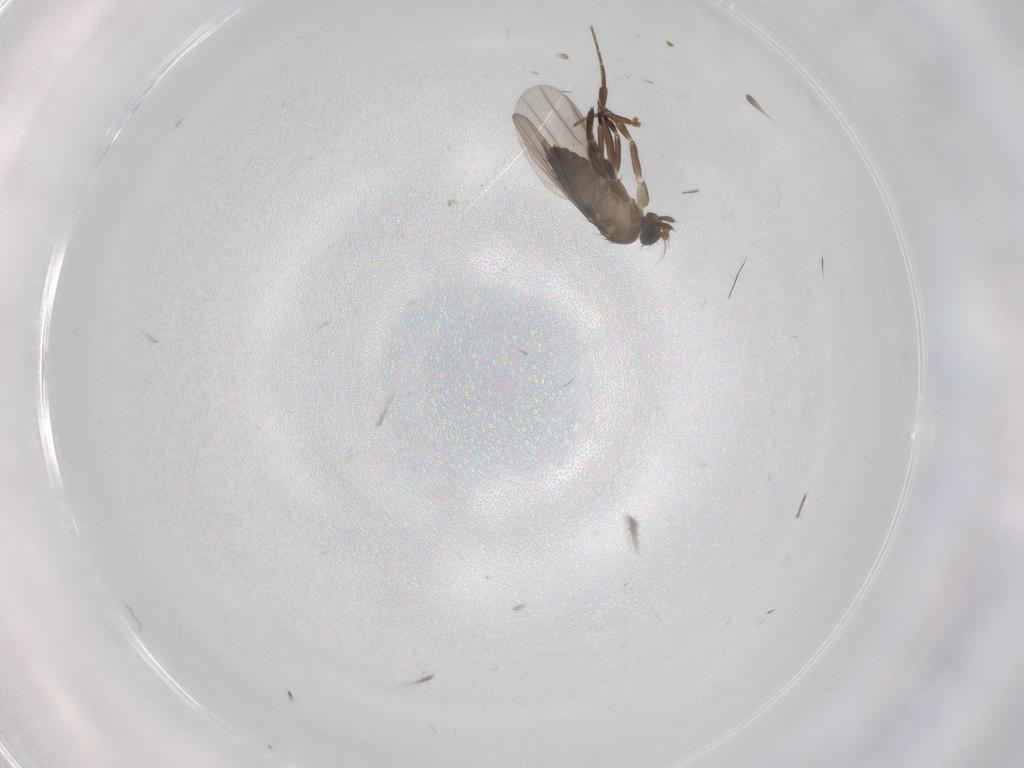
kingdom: Animalia
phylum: Arthropoda
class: Insecta
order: Diptera
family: Phoridae
